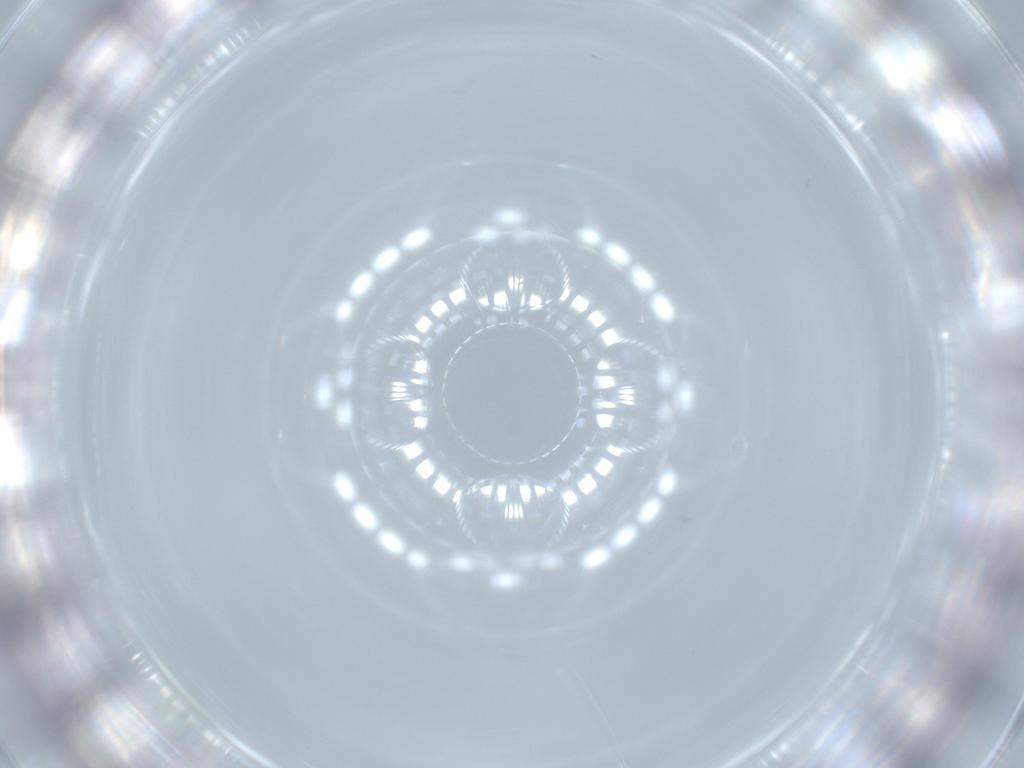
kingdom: Animalia
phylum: Arthropoda
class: Insecta
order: Diptera
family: Psychodidae
